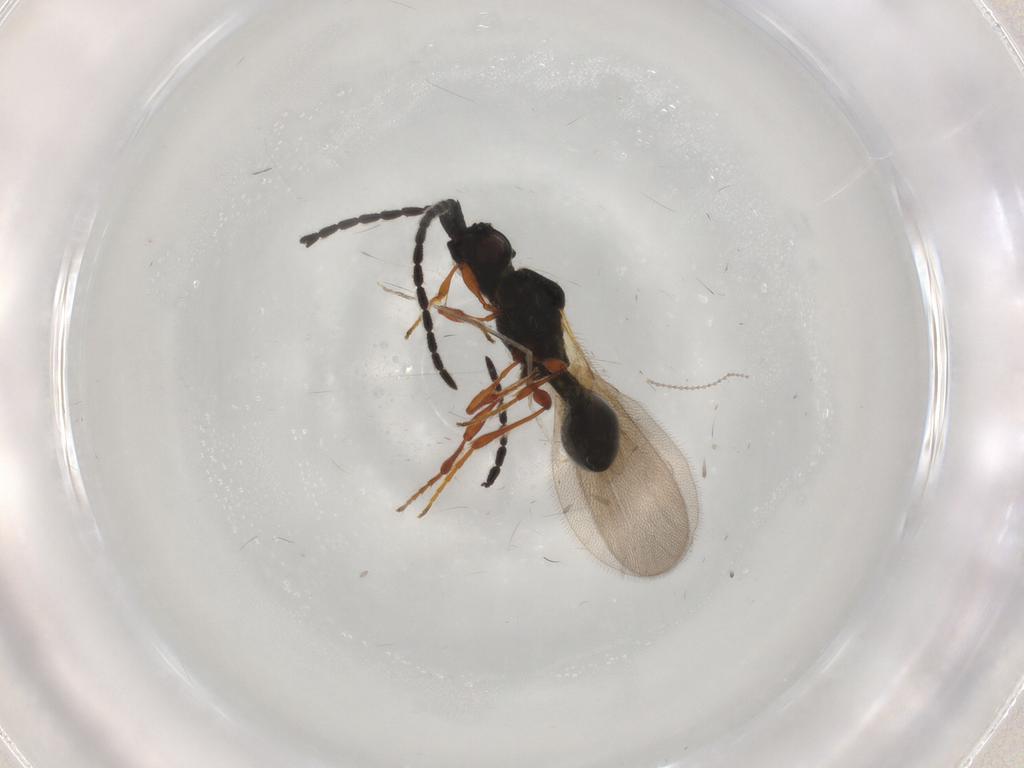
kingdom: Animalia
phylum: Arthropoda
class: Insecta
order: Hymenoptera
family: Diapriidae
